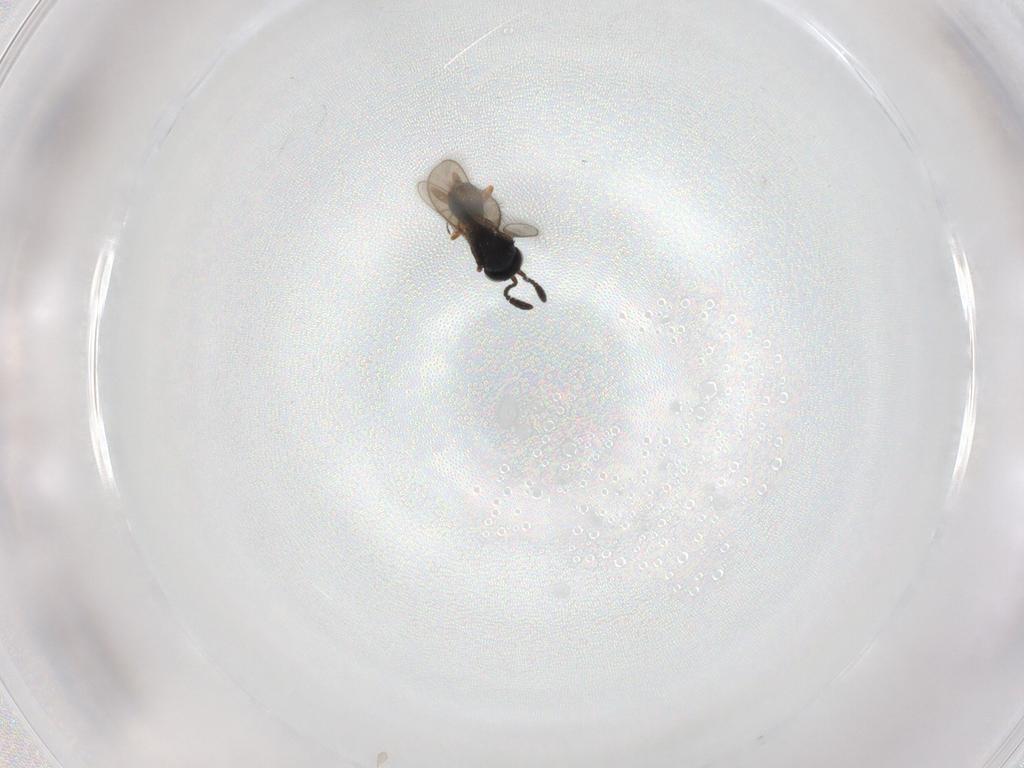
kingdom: Animalia
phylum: Arthropoda
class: Insecta
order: Hymenoptera
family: Scelionidae
